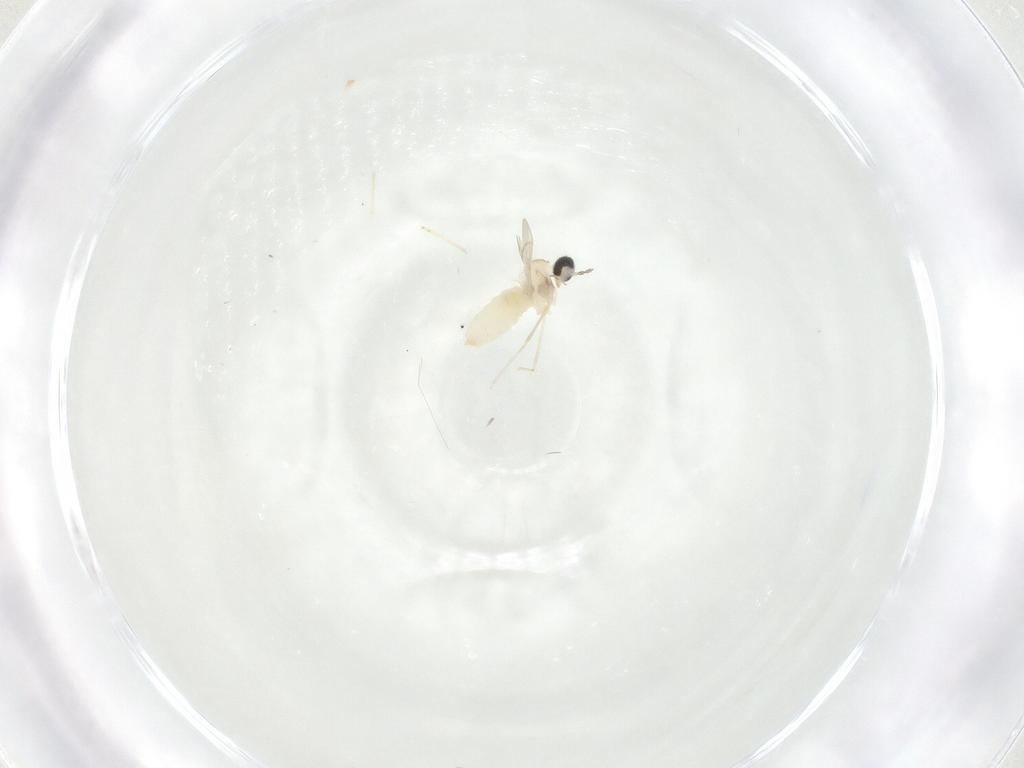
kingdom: Animalia
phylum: Arthropoda
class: Insecta
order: Diptera
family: Cecidomyiidae
